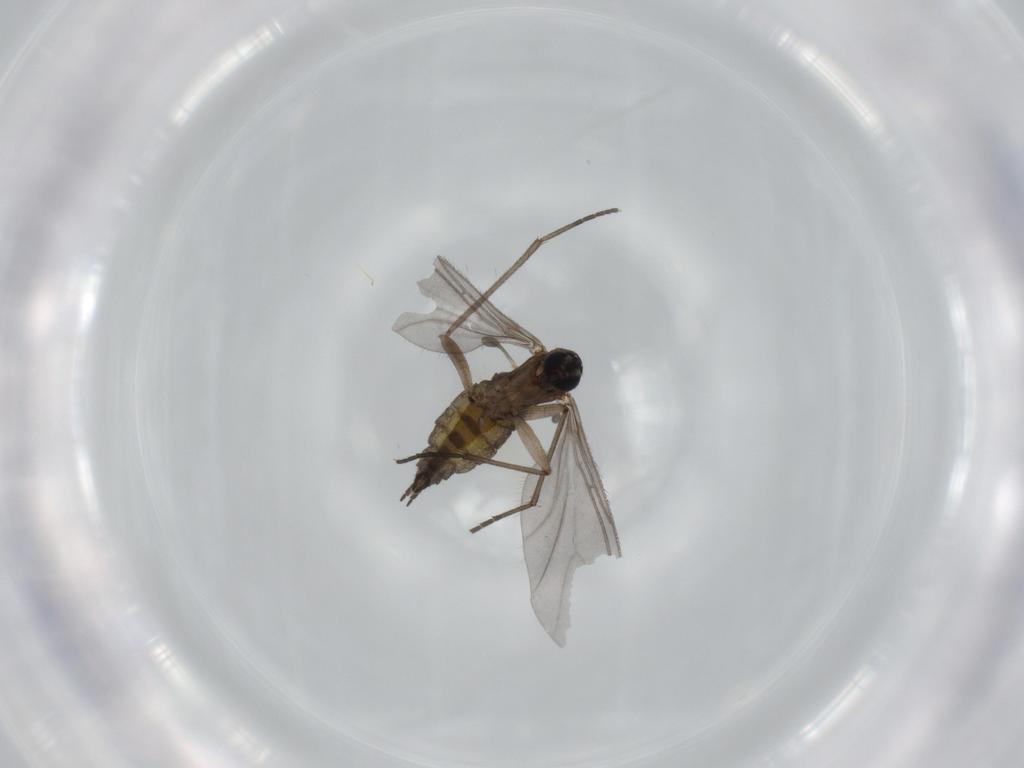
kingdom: Animalia
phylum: Arthropoda
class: Insecta
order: Diptera
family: Sciaridae
